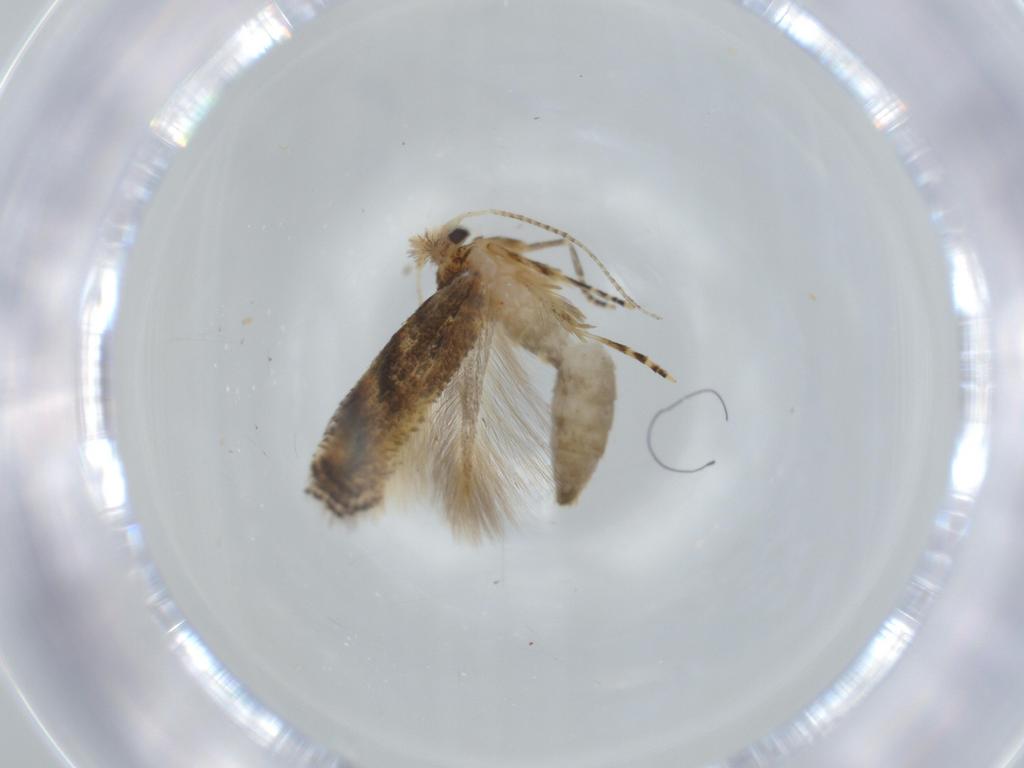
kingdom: Animalia
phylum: Arthropoda
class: Insecta
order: Lepidoptera
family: Bucculatricidae
